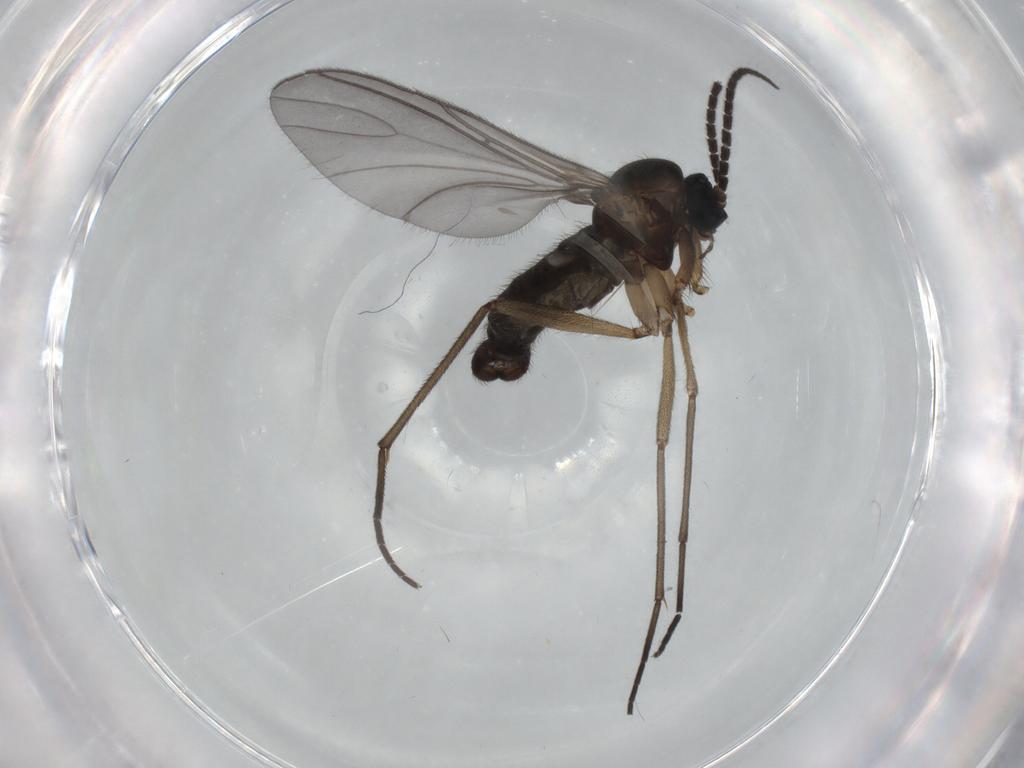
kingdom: Animalia
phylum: Arthropoda
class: Insecta
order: Diptera
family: Sciaridae
